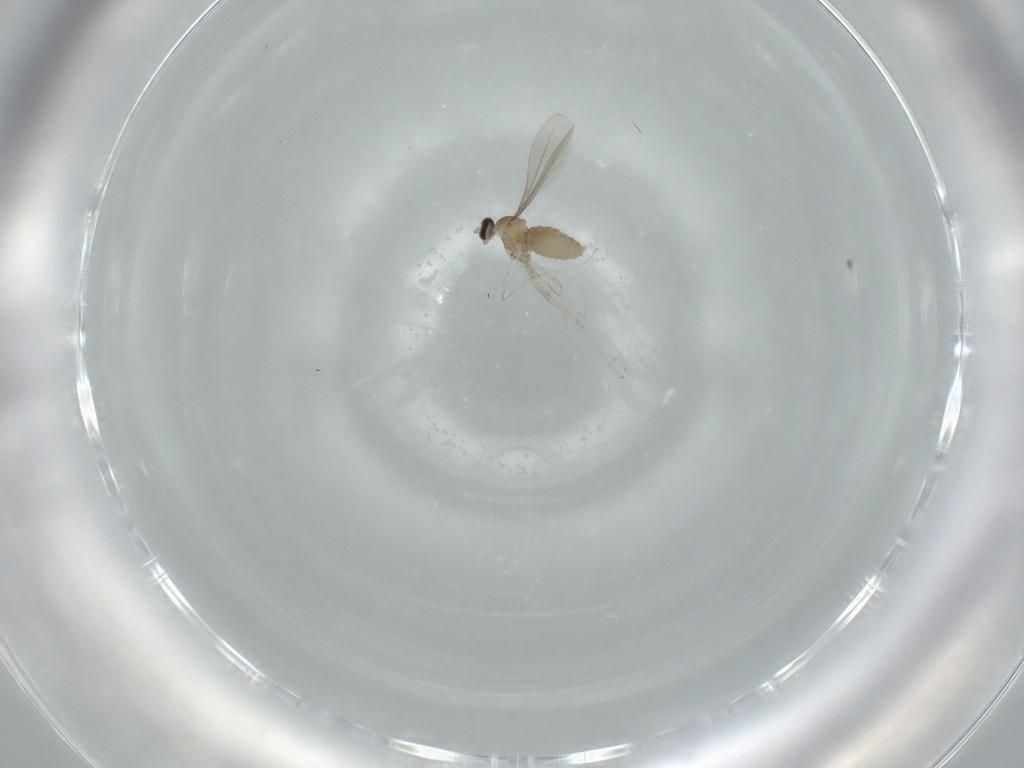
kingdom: Animalia
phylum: Arthropoda
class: Insecta
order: Diptera
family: Cecidomyiidae
